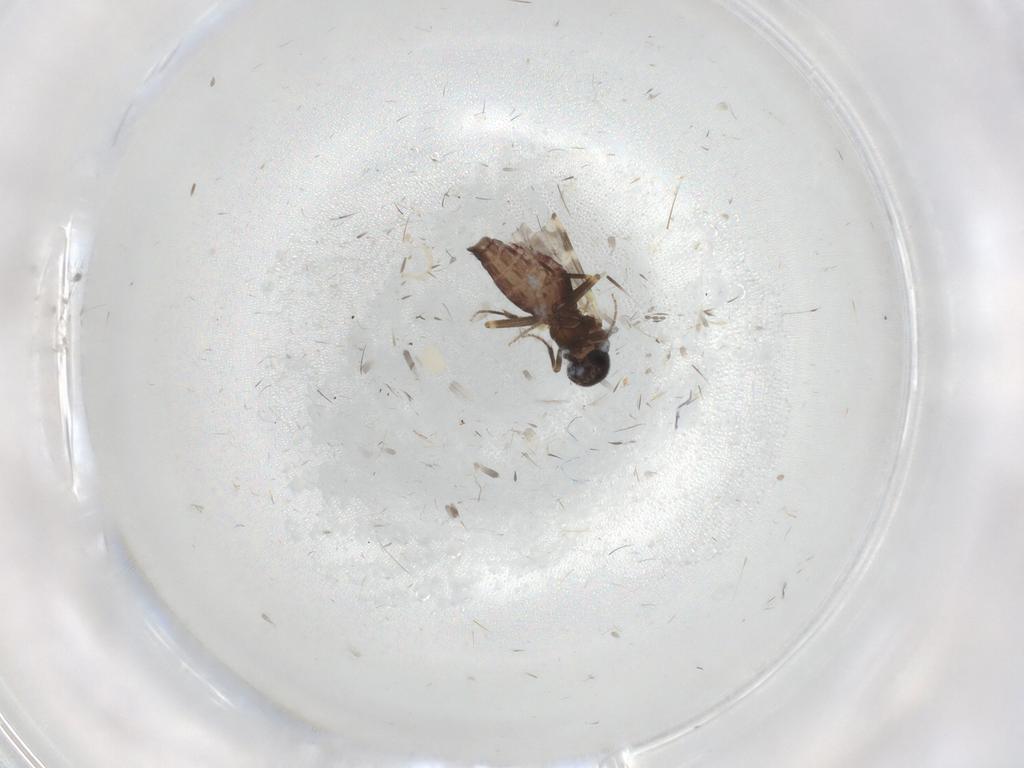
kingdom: Animalia
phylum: Arthropoda
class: Insecta
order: Diptera
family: Ceratopogonidae
